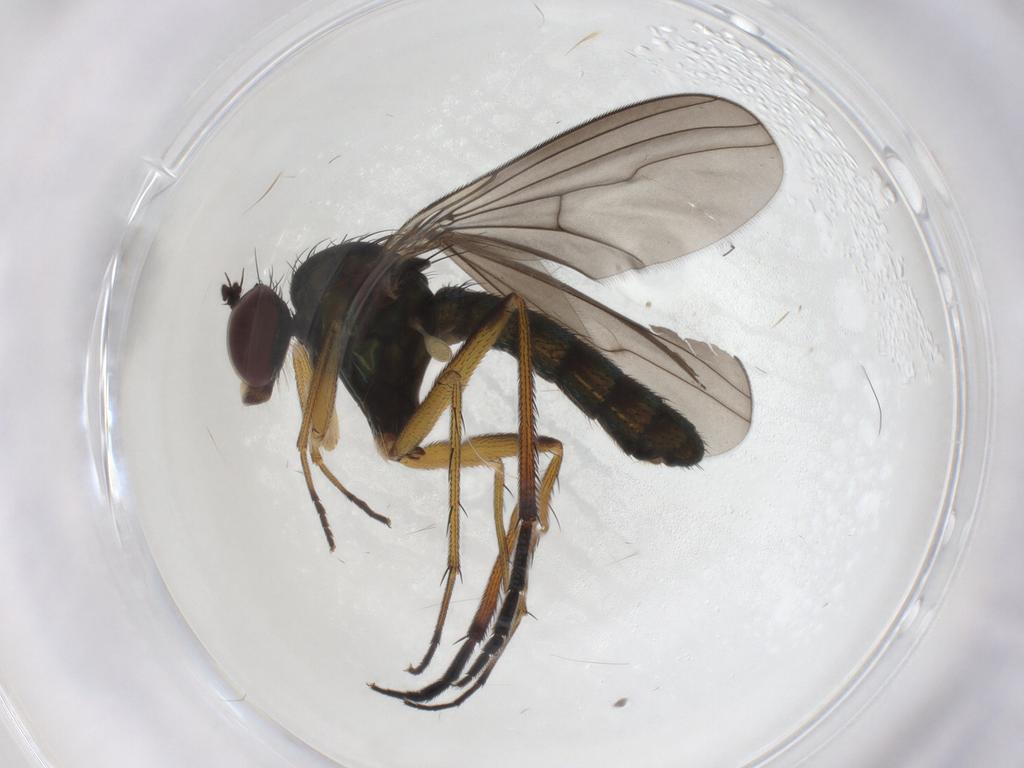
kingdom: Animalia
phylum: Arthropoda
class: Insecta
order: Diptera
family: Dolichopodidae
